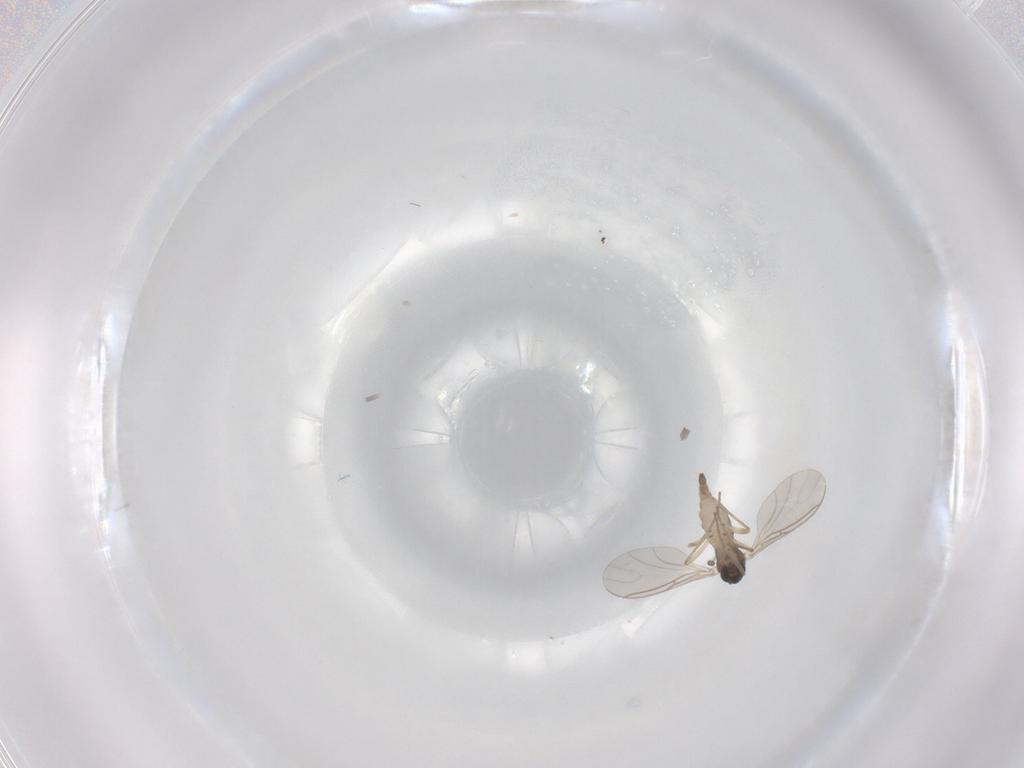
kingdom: Animalia
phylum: Arthropoda
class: Insecta
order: Diptera
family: Sciaridae
